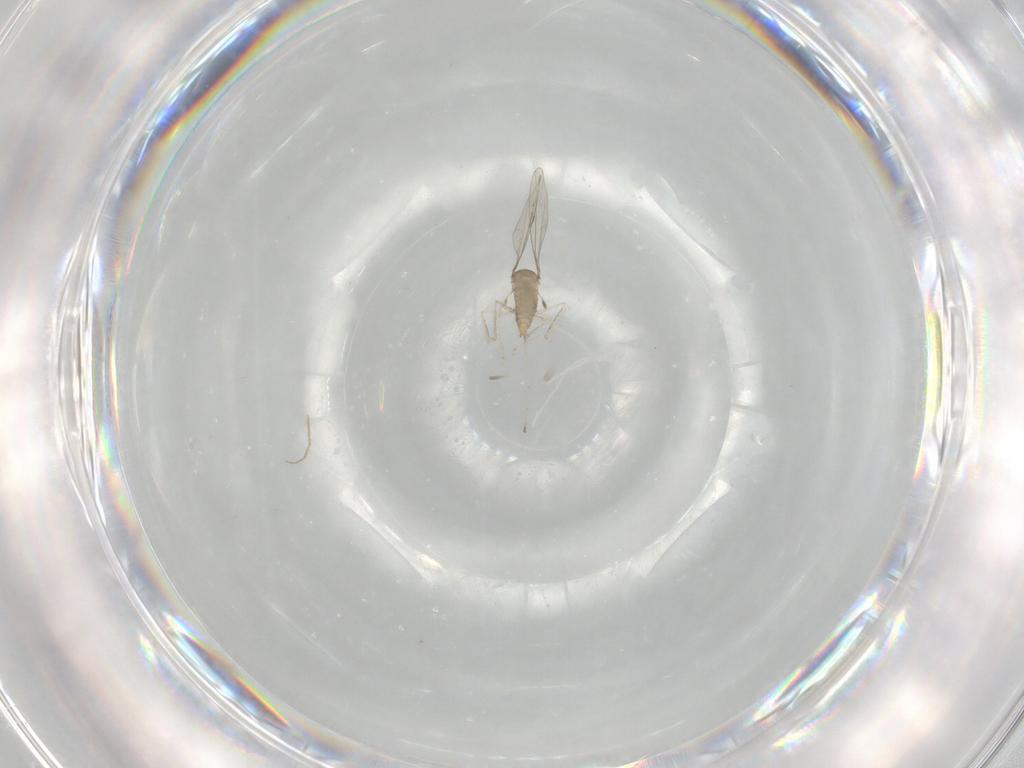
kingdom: Animalia
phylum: Arthropoda
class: Insecta
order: Diptera
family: Cecidomyiidae
